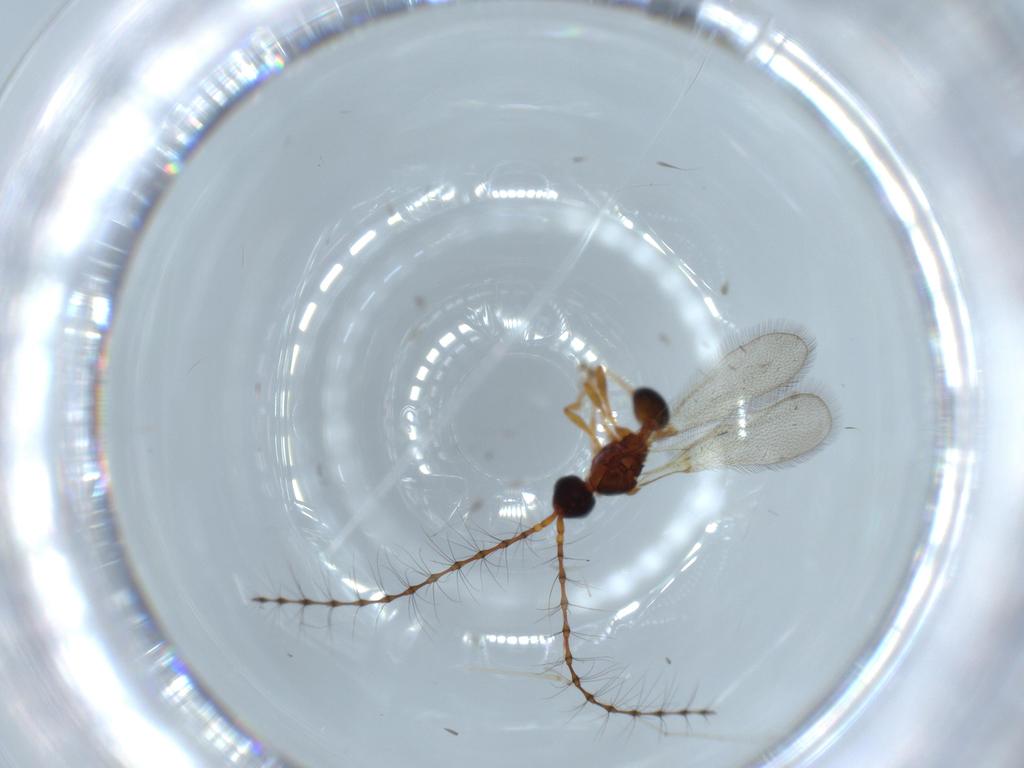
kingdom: Animalia
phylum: Arthropoda
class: Insecta
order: Hymenoptera
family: Diapriidae
